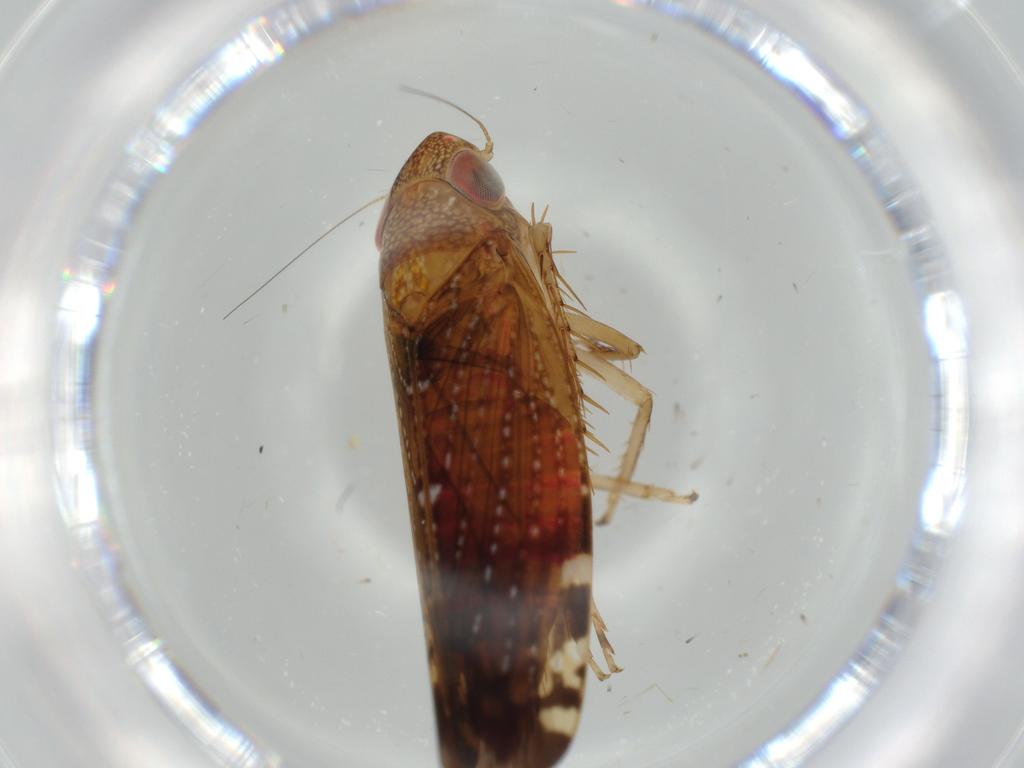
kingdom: Animalia
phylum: Arthropoda
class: Insecta
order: Hemiptera
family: Cicadellidae
